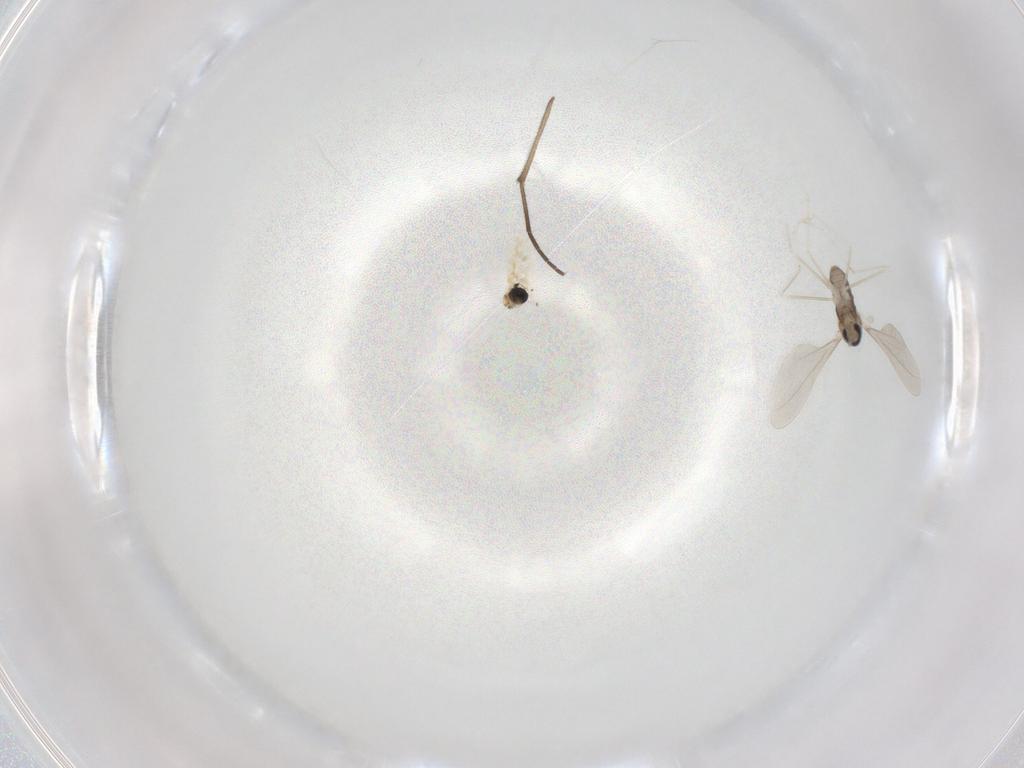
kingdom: Animalia
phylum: Arthropoda
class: Insecta
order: Diptera
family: Cecidomyiidae
